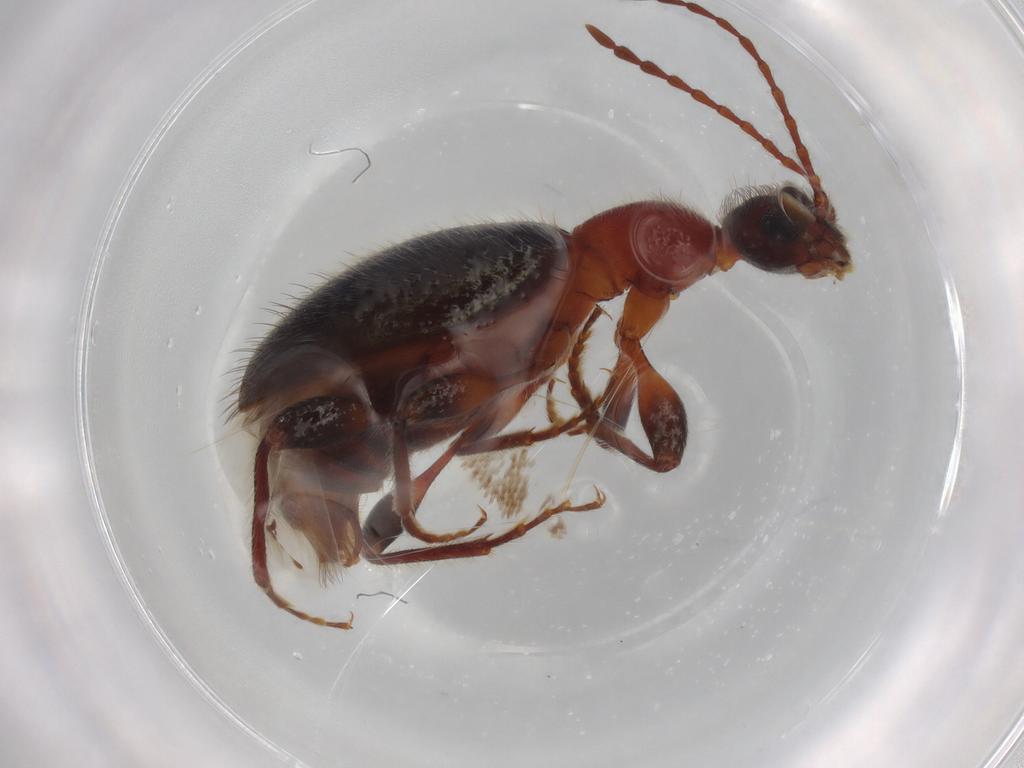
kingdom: Animalia
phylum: Arthropoda
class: Insecta
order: Coleoptera
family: Anthicidae
